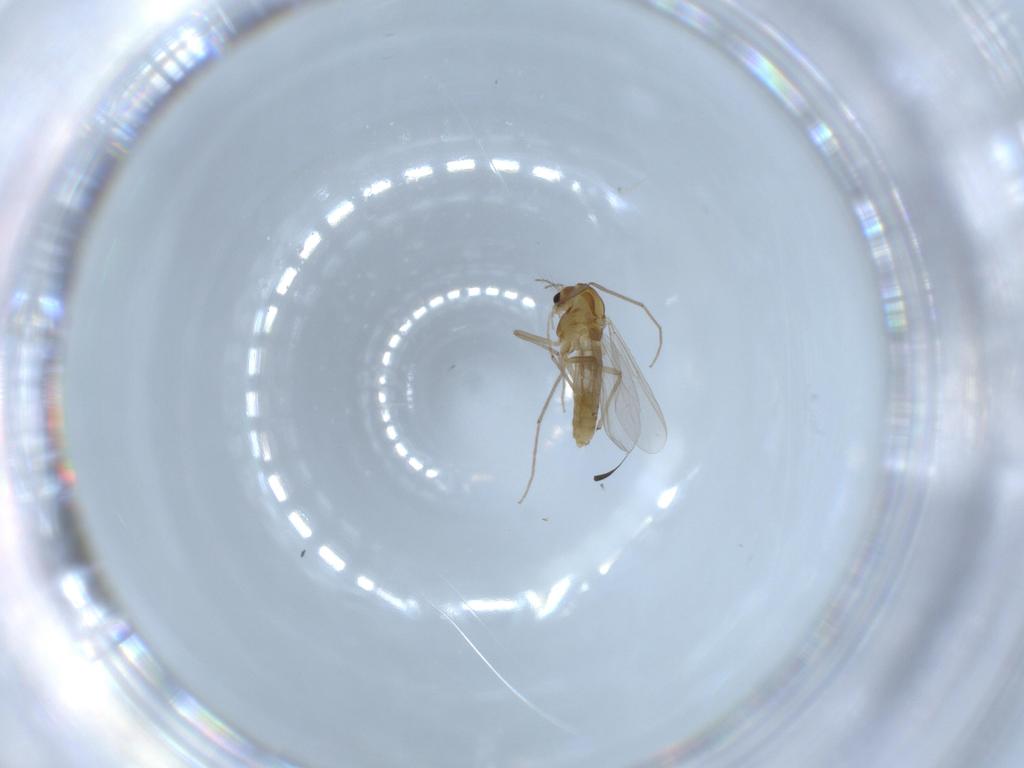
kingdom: Animalia
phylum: Arthropoda
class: Insecta
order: Diptera
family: Chironomidae
